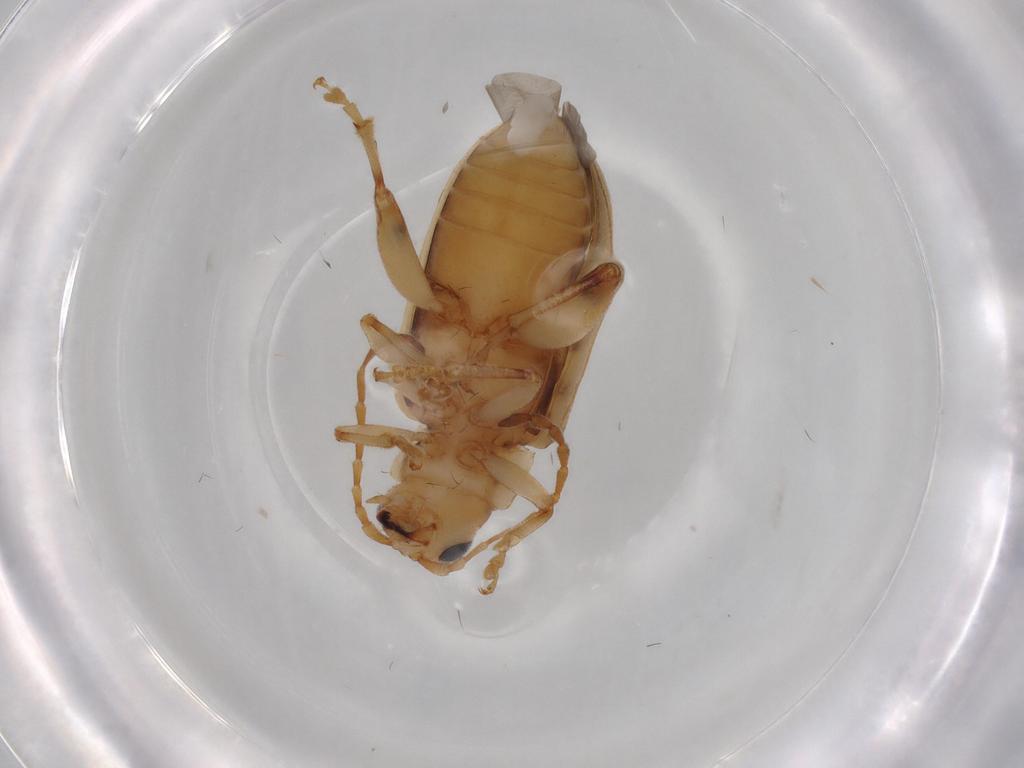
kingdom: Animalia
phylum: Arthropoda
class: Insecta
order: Coleoptera
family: Chrysomelidae
